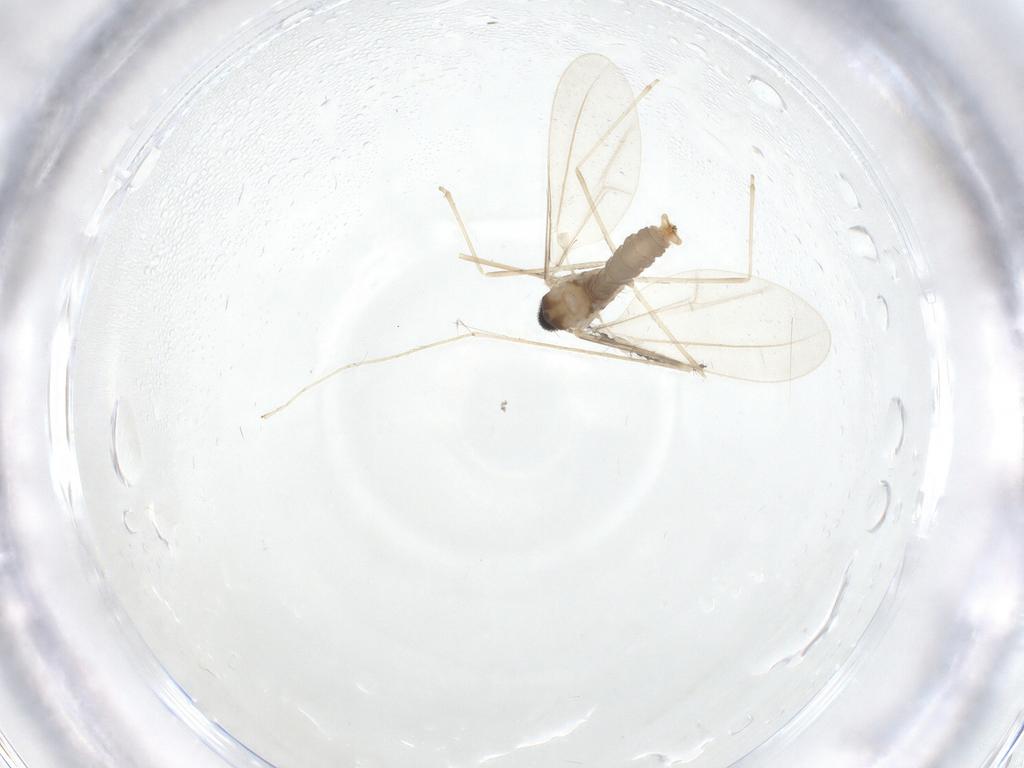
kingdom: Animalia
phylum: Arthropoda
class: Insecta
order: Diptera
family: Cecidomyiidae
